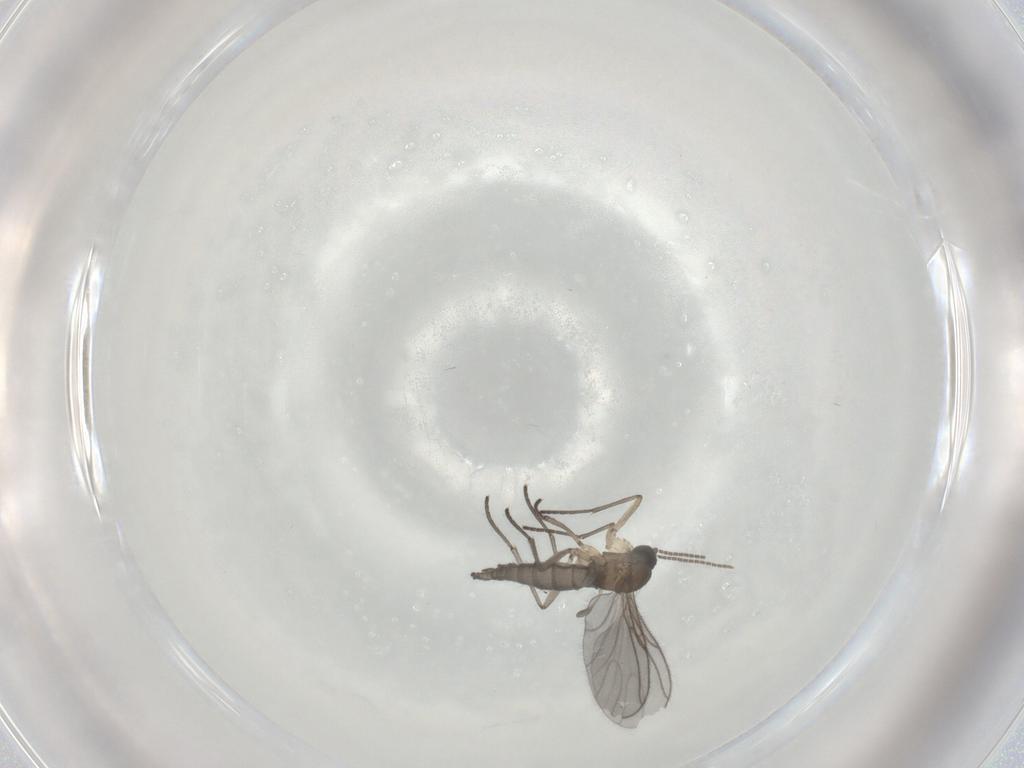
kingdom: Animalia
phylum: Arthropoda
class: Insecta
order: Diptera
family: Sciaridae
